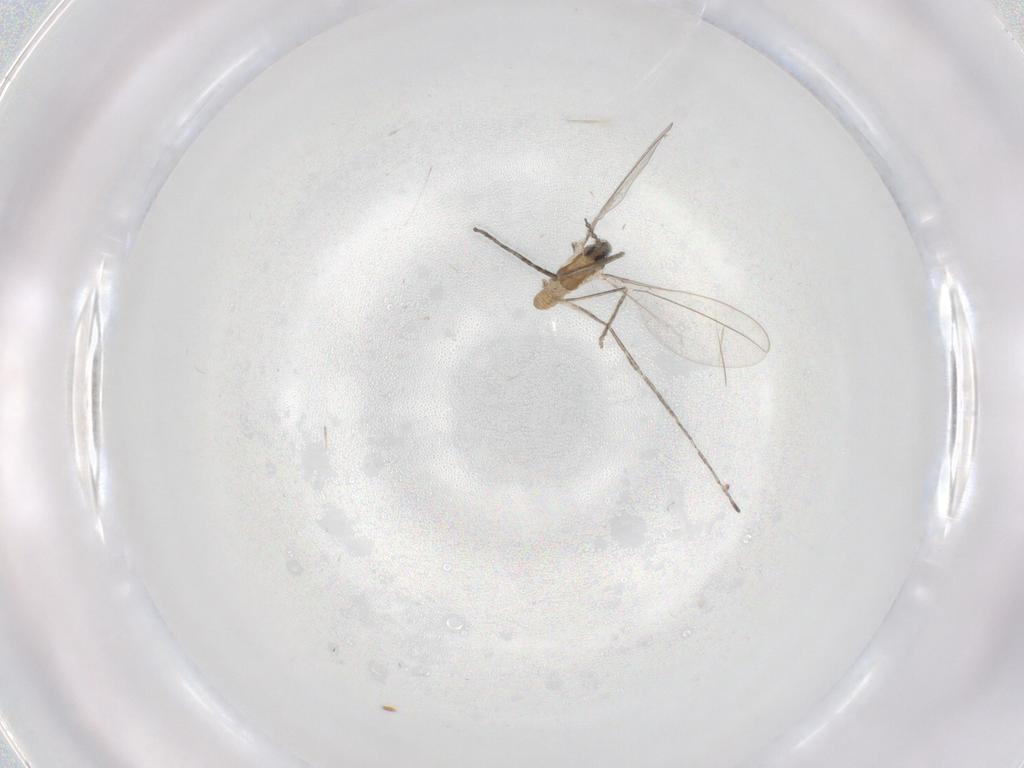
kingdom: Animalia
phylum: Arthropoda
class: Insecta
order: Diptera
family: Cecidomyiidae
